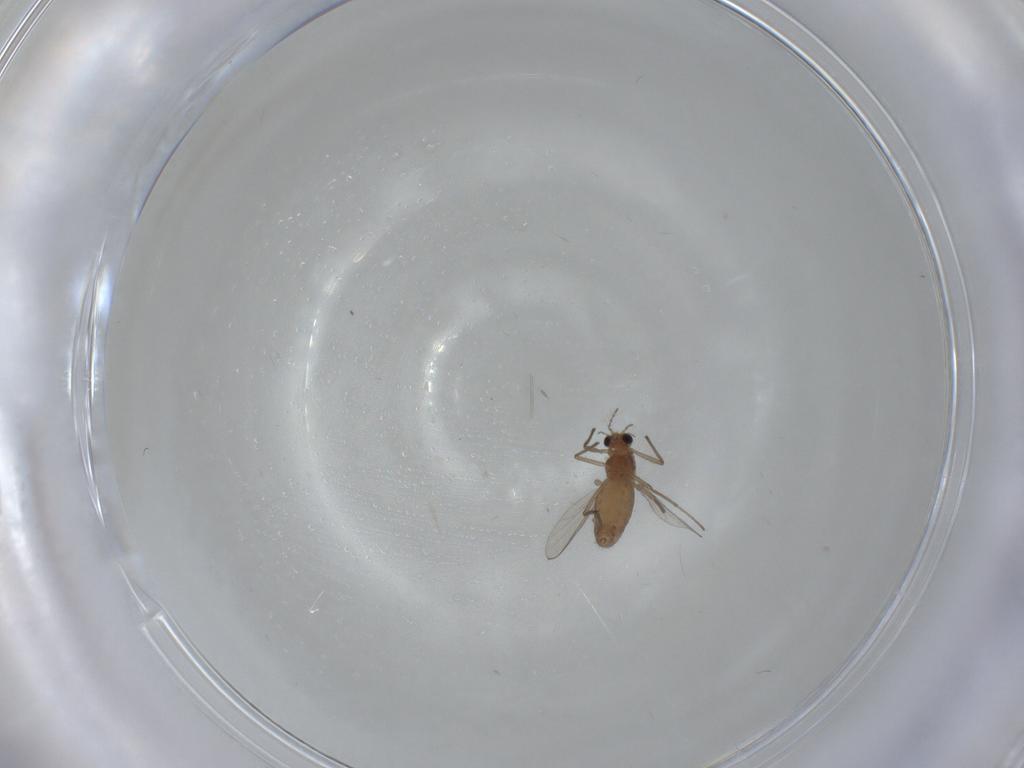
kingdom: Animalia
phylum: Arthropoda
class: Insecta
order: Diptera
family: Chironomidae
